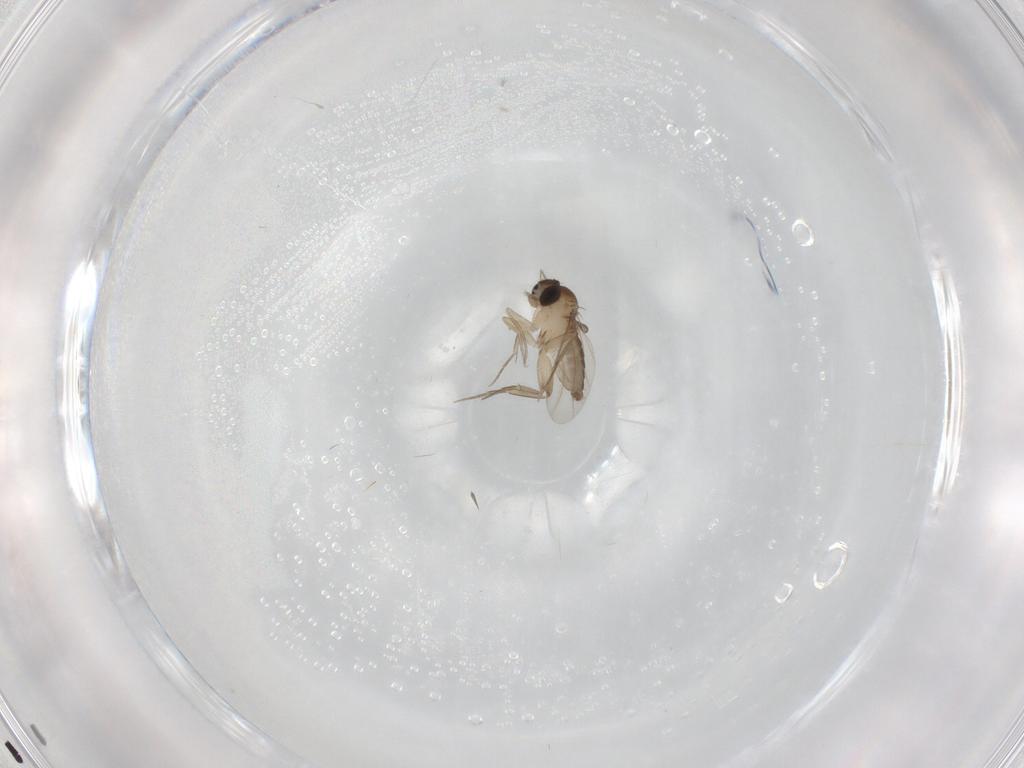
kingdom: Animalia
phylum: Arthropoda
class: Insecta
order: Diptera
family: Phoridae
